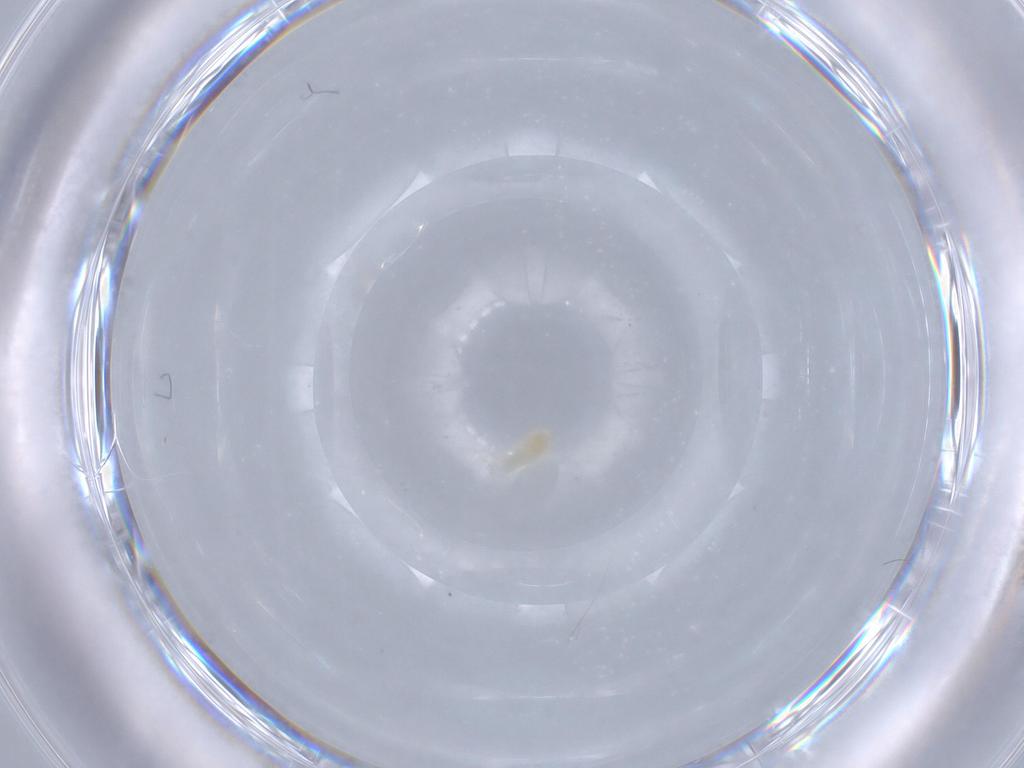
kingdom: Animalia
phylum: Arthropoda
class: Arachnida
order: Trombidiformes
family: Eupodidae
